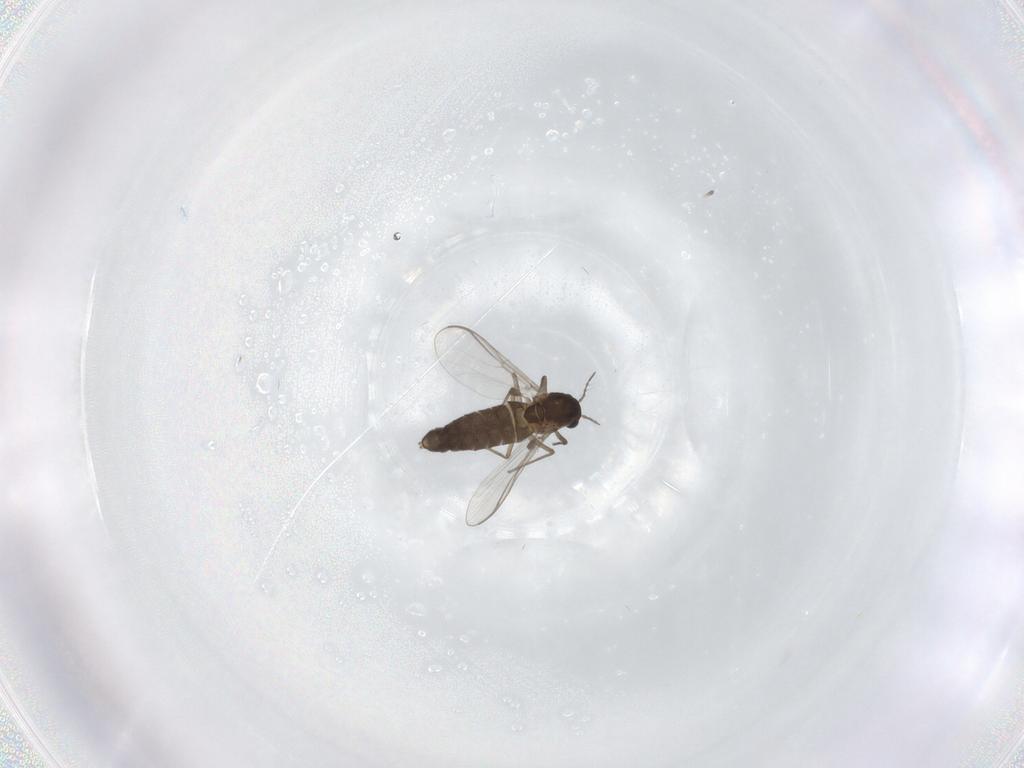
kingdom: Animalia
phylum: Arthropoda
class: Insecta
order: Diptera
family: Chironomidae
